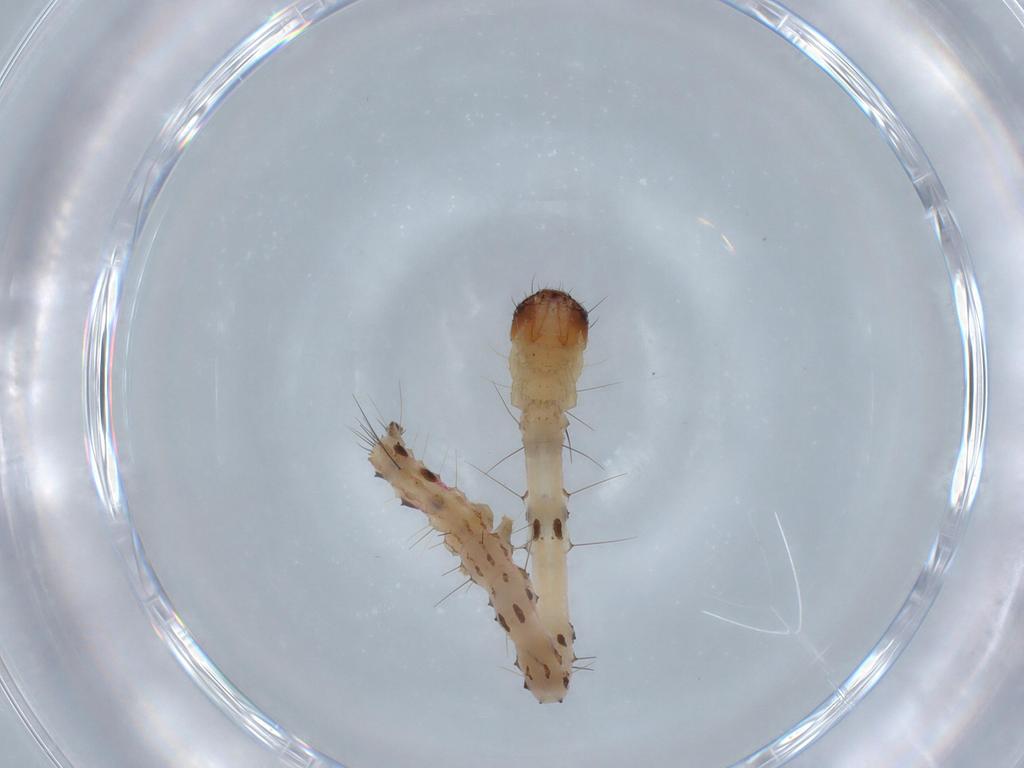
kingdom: Animalia
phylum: Arthropoda
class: Insecta
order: Lepidoptera
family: Erebidae
